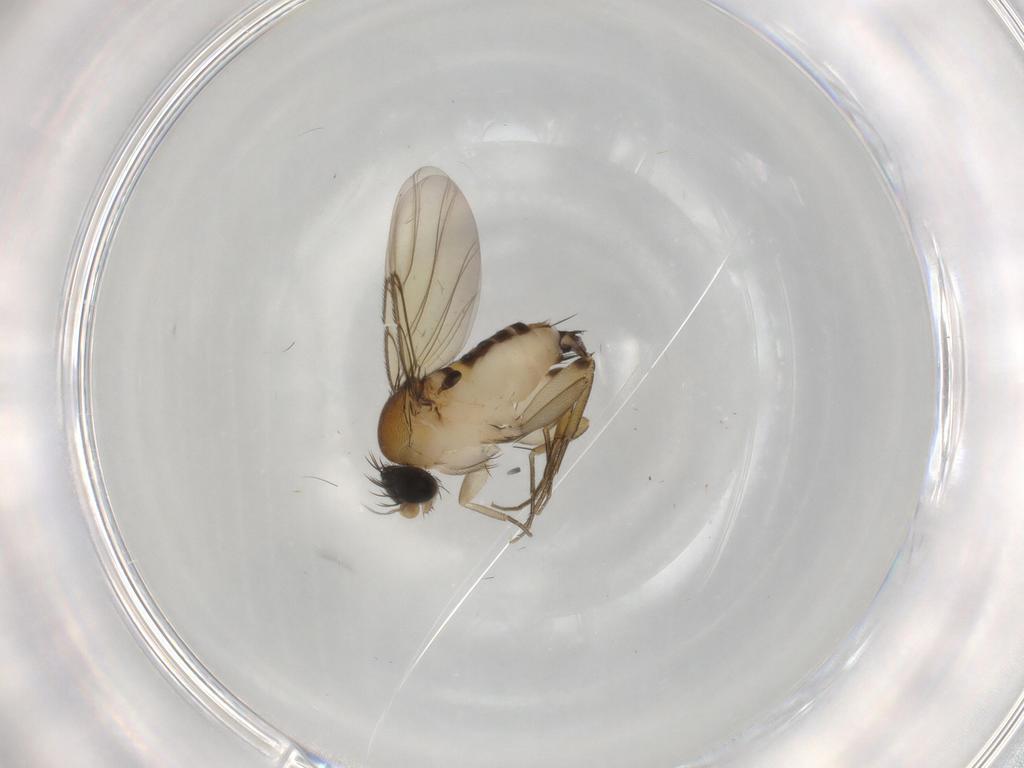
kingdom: Animalia
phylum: Arthropoda
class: Insecta
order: Diptera
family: Phoridae
